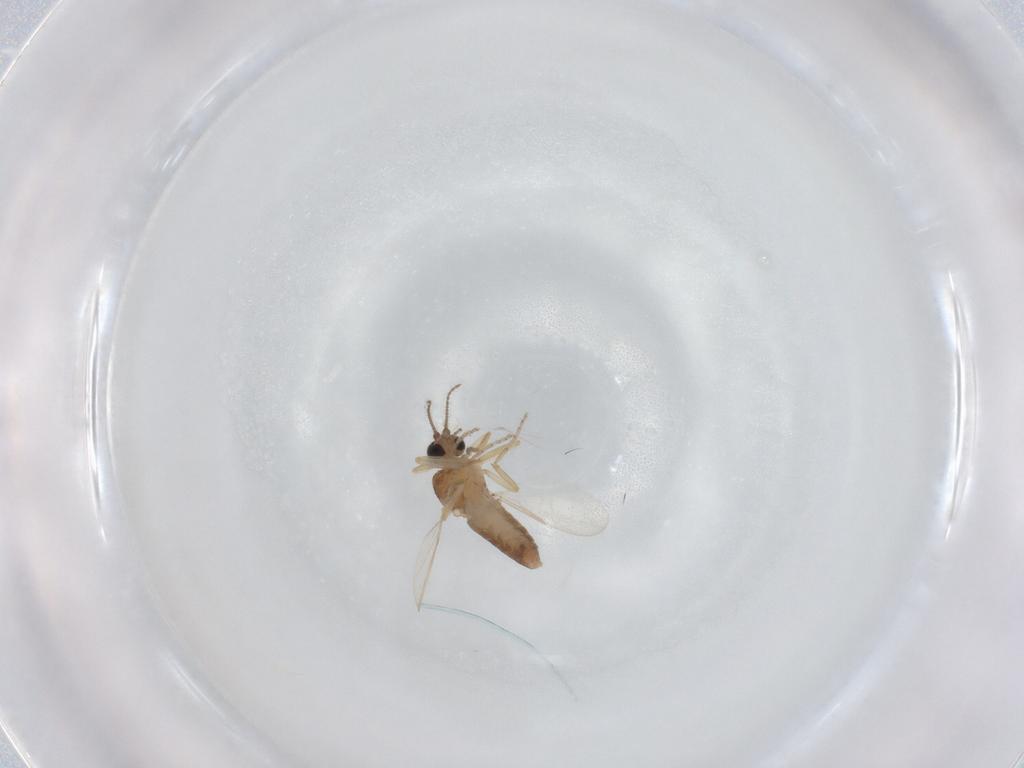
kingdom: Animalia
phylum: Arthropoda
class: Insecta
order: Diptera
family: Ceratopogonidae
